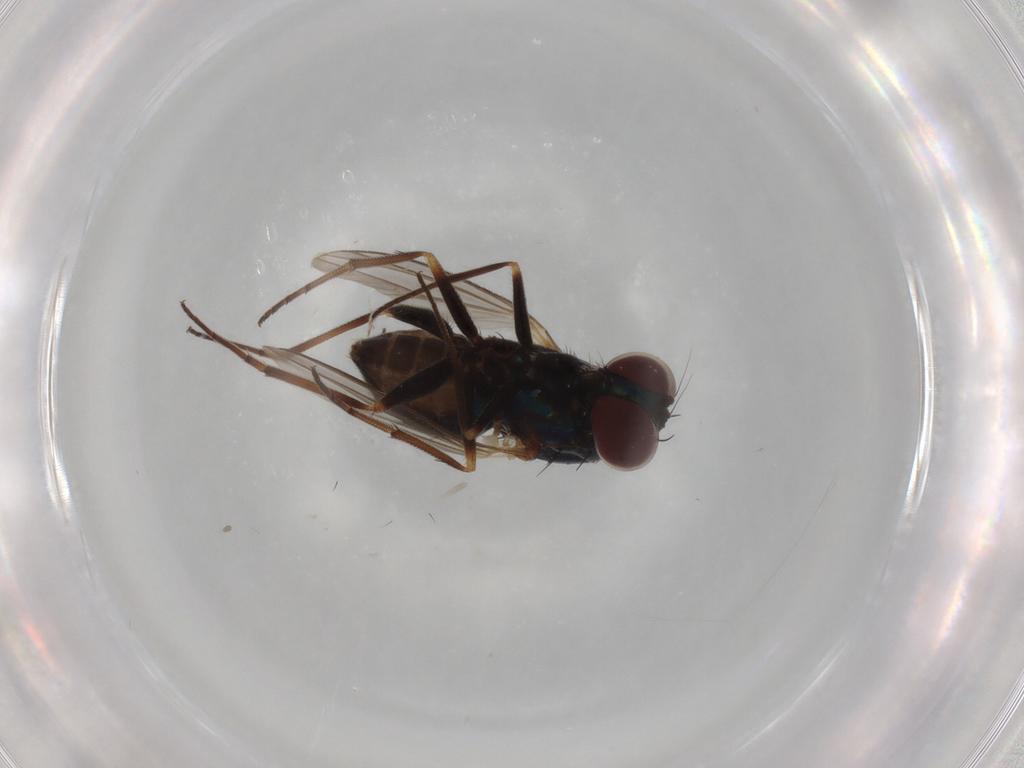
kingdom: Animalia
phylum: Arthropoda
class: Insecta
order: Diptera
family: Dolichopodidae
